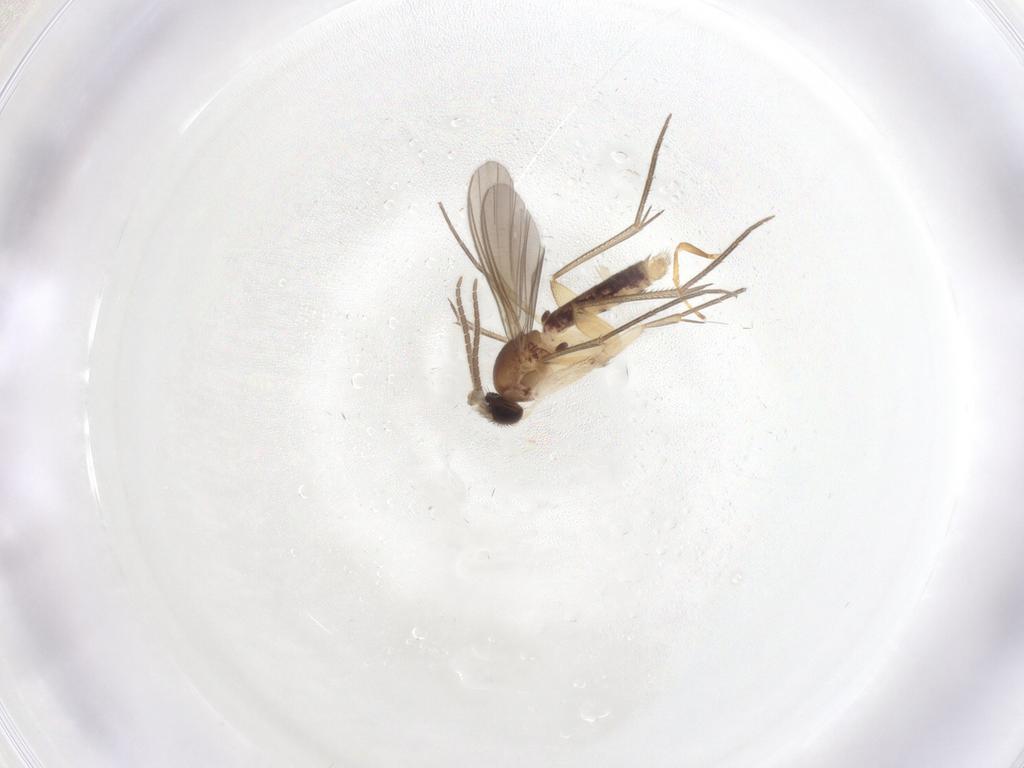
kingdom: Animalia
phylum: Arthropoda
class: Insecta
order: Diptera
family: Mycetophilidae
